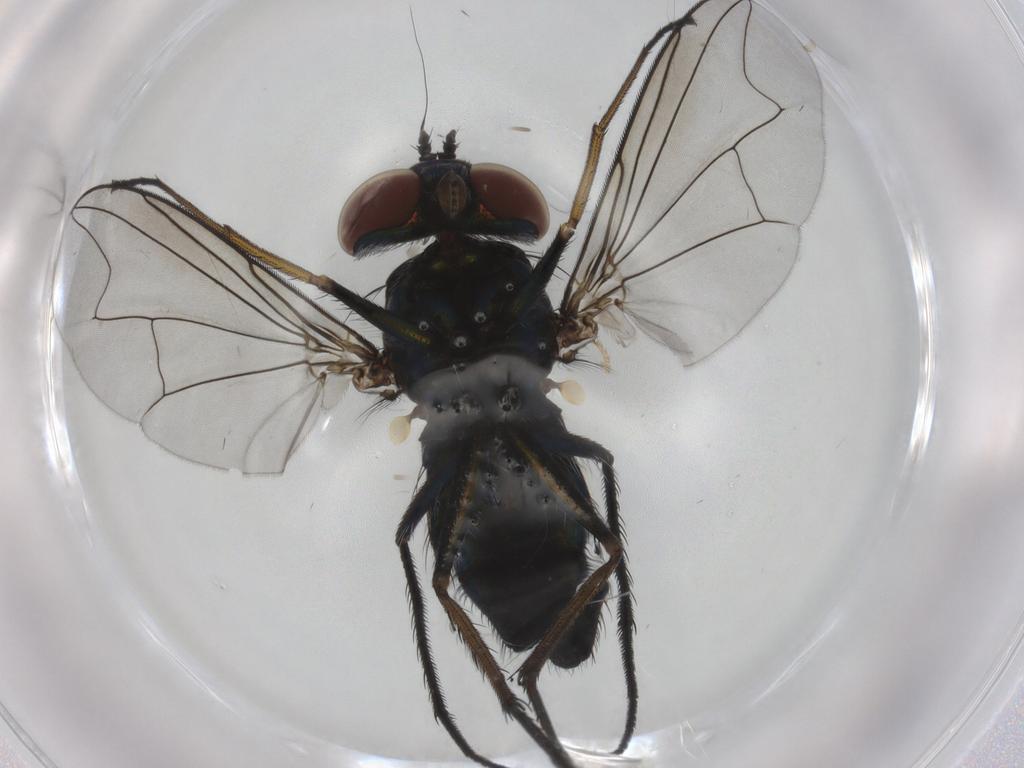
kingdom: Animalia
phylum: Arthropoda
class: Insecta
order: Diptera
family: Dolichopodidae
